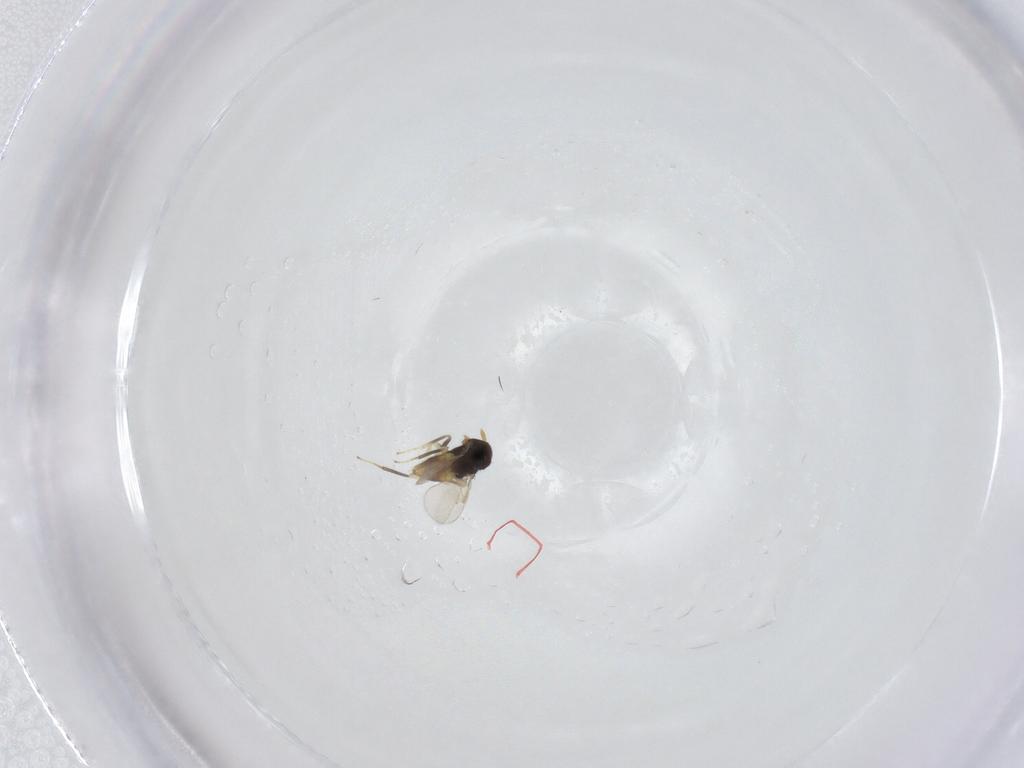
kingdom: Animalia
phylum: Arthropoda
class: Insecta
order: Hymenoptera
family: Aphelinidae
